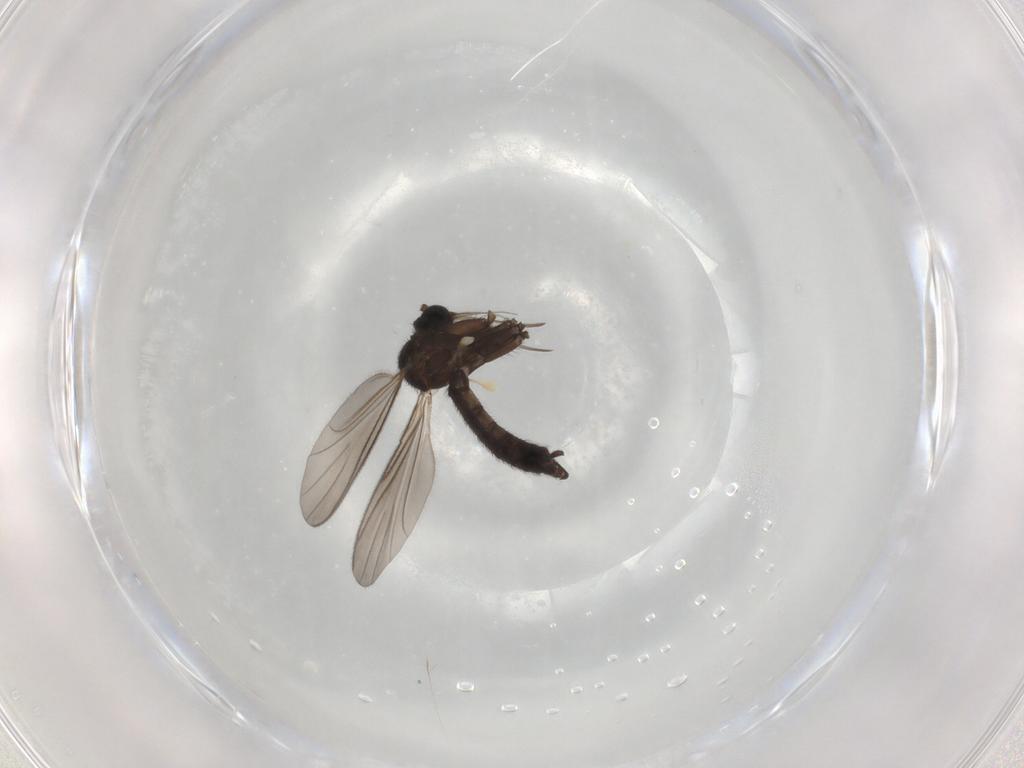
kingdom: Animalia
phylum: Arthropoda
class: Insecta
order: Diptera
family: Keroplatidae
